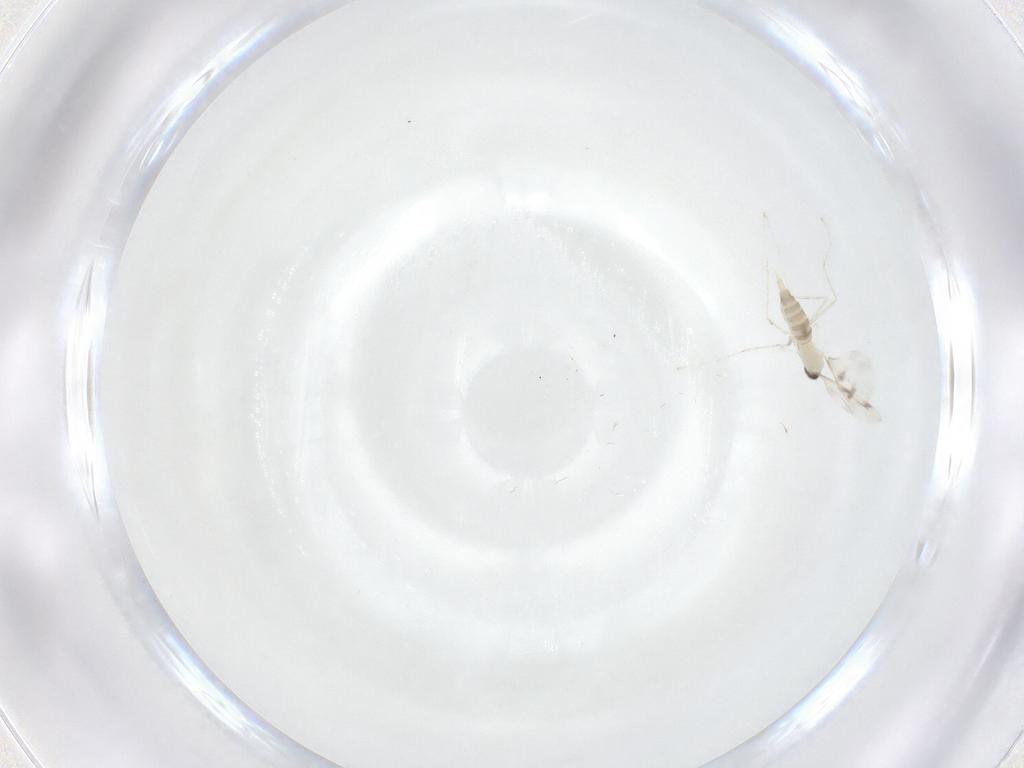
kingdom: Animalia
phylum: Arthropoda
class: Insecta
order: Diptera
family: Cecidomyiidae
